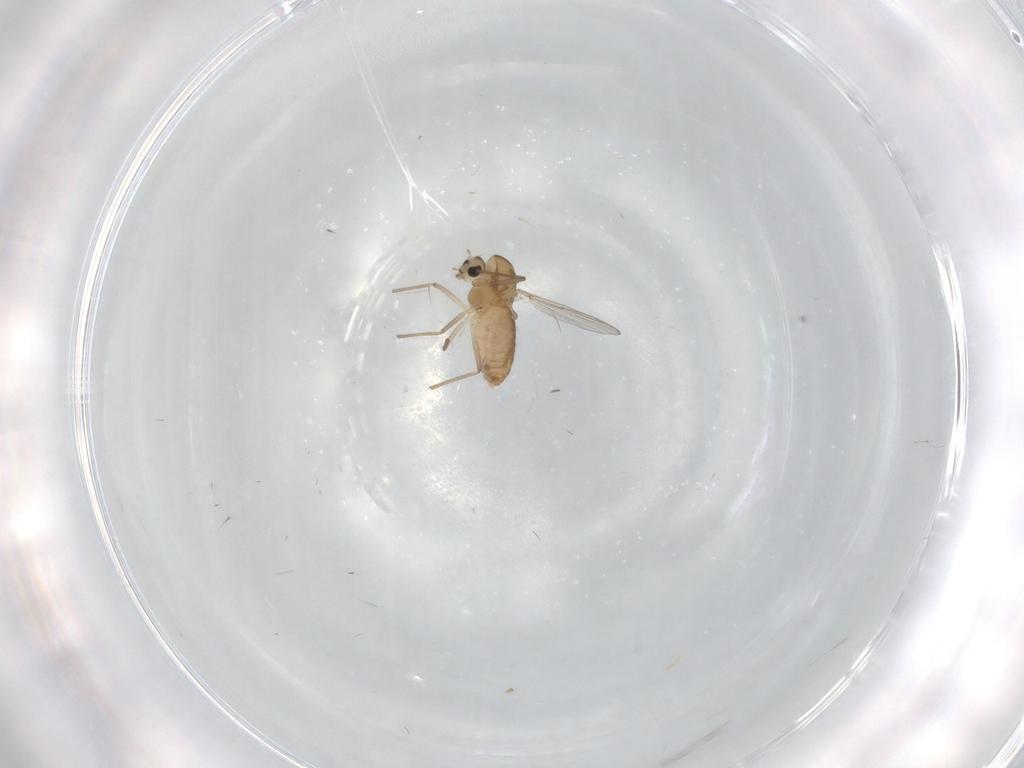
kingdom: Animalia
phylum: Arthropoda
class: Insecta
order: Diptera
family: Chironomidae
